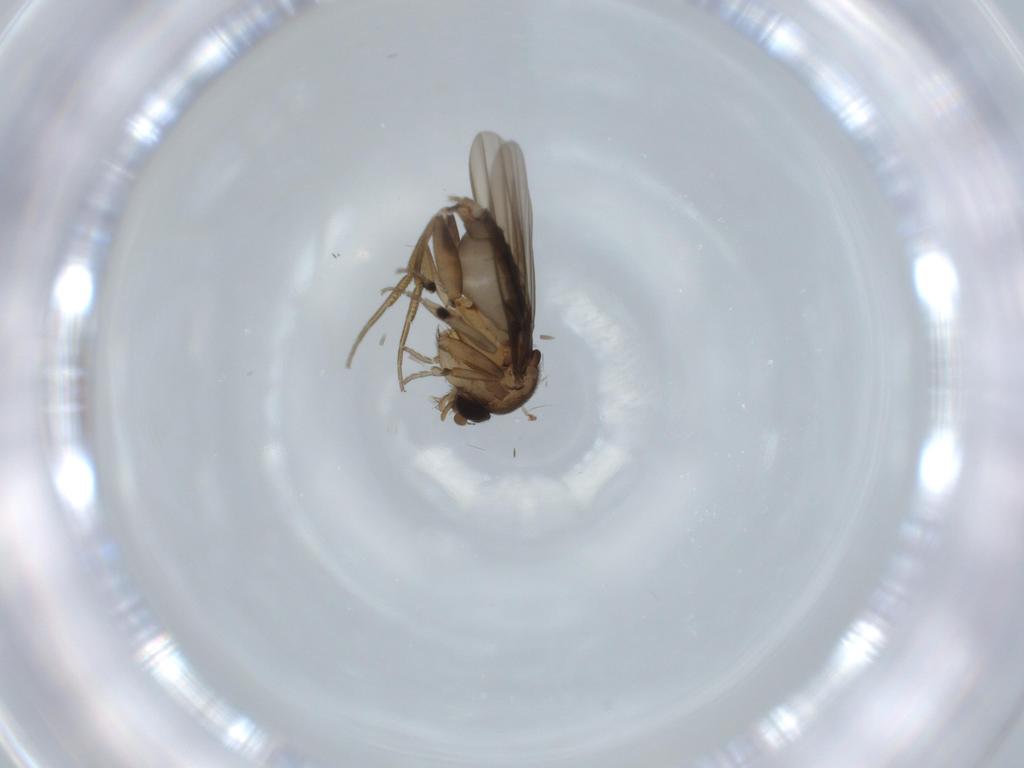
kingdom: Animalia
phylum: Arthropoda
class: Insecta
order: Diptera
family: Phoridae
